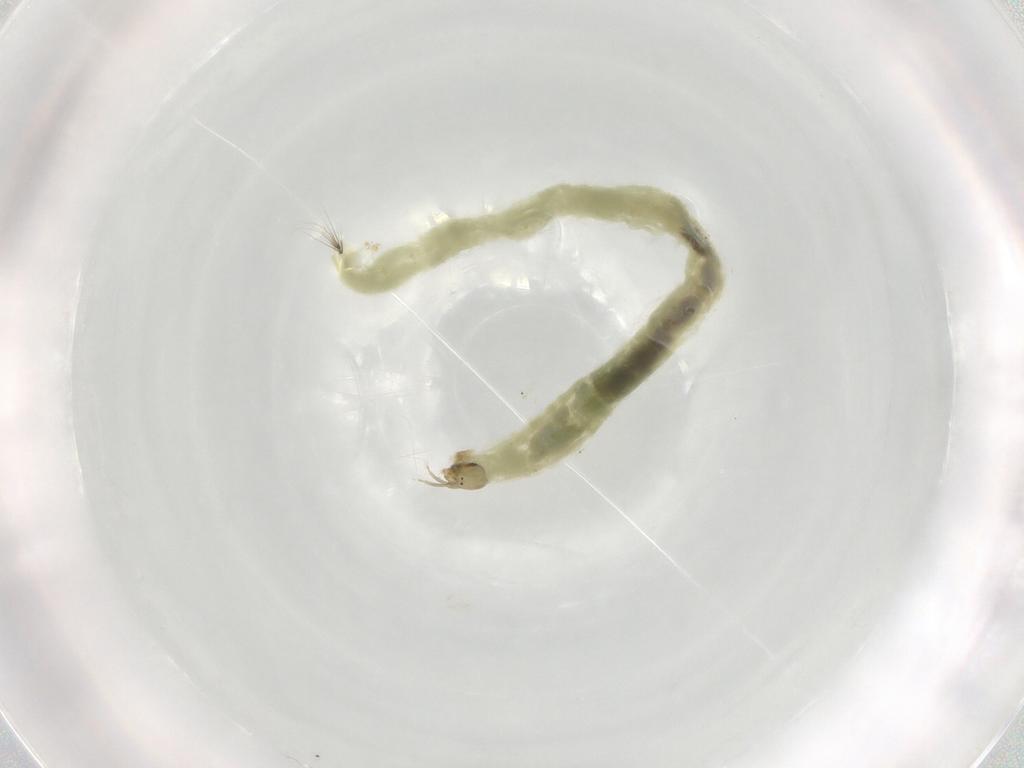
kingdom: Animalia
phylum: Arthropoda
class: Insecta
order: Diptera
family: Chironomidae
